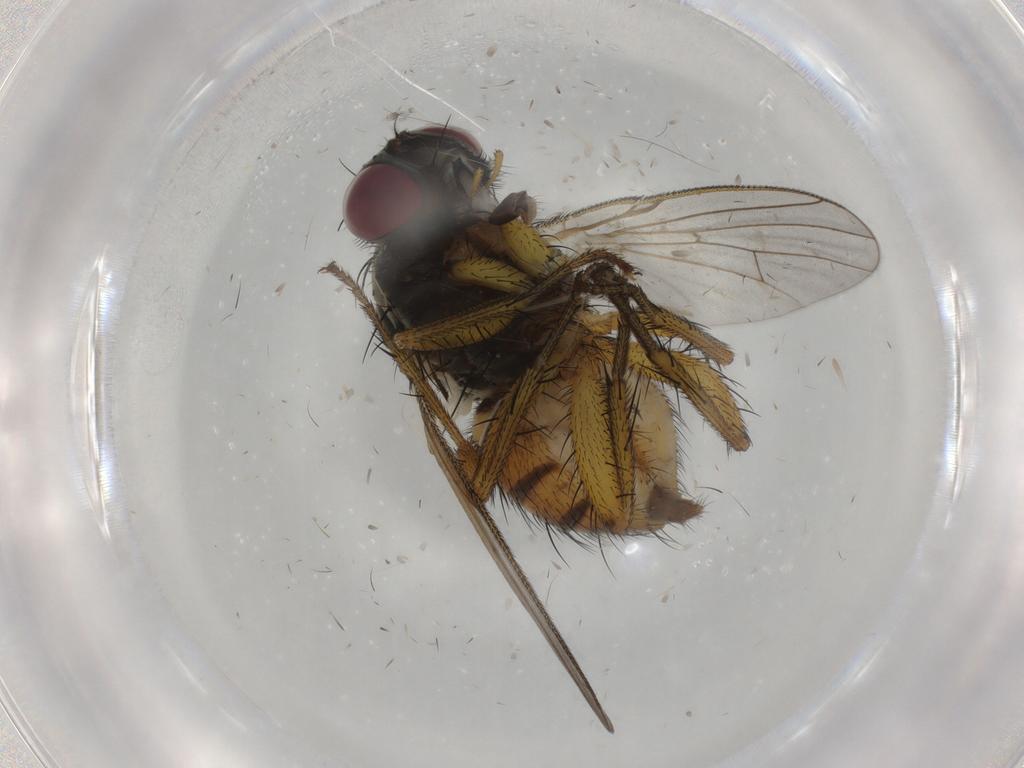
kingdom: Animalia
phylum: Arthropoda
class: Insecta
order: Diptera
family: Muscidae
